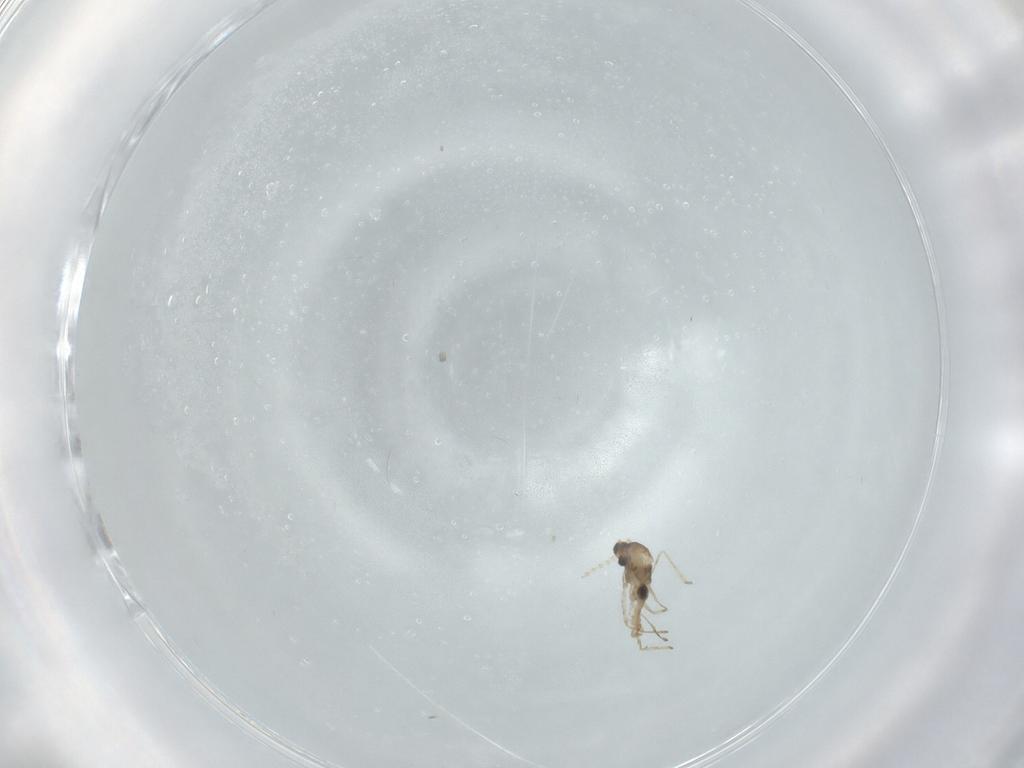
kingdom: Animalia
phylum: Arthropoda
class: Insecta
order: Diptera
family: Cecidomyiidae
